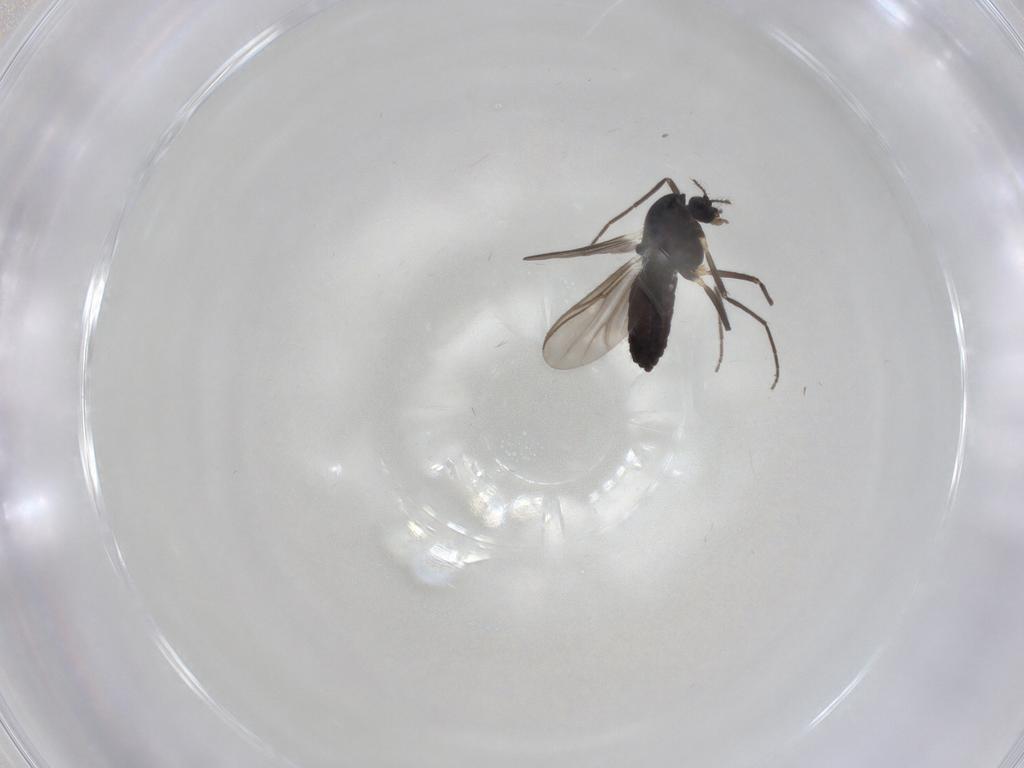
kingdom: Animalia
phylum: Arthropoda
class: Insecta
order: Diptera
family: Chironomidae
